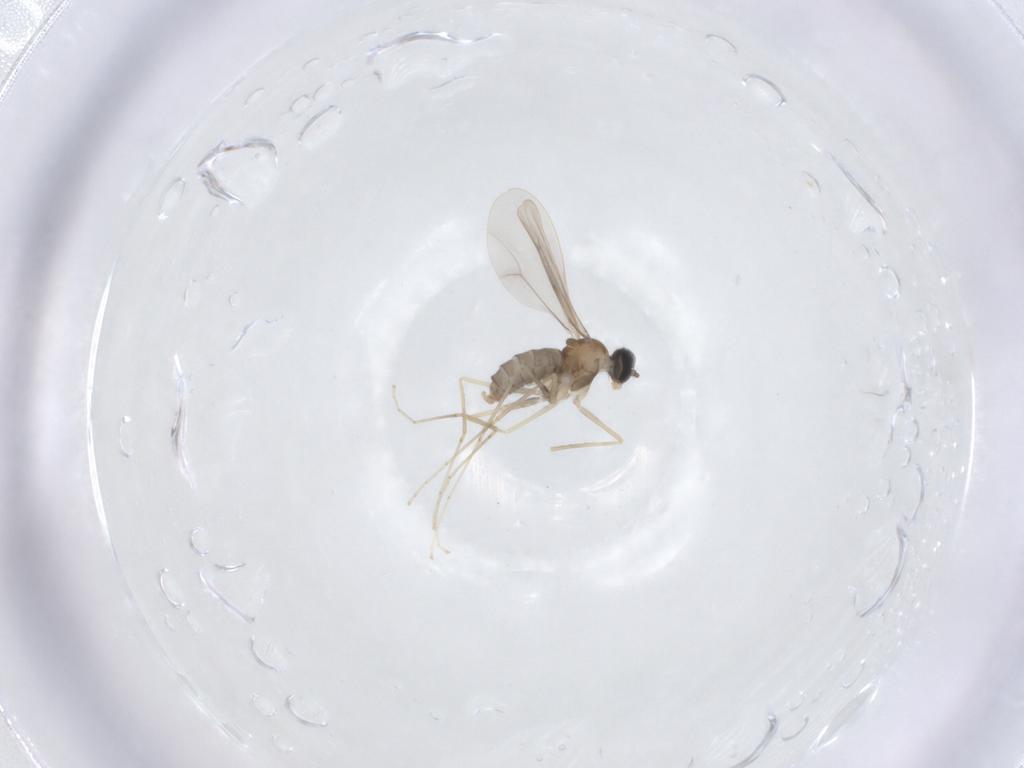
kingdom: Animalia
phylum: Arthropoda
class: Insecta
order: Diptera
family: Cecidomyiidae
